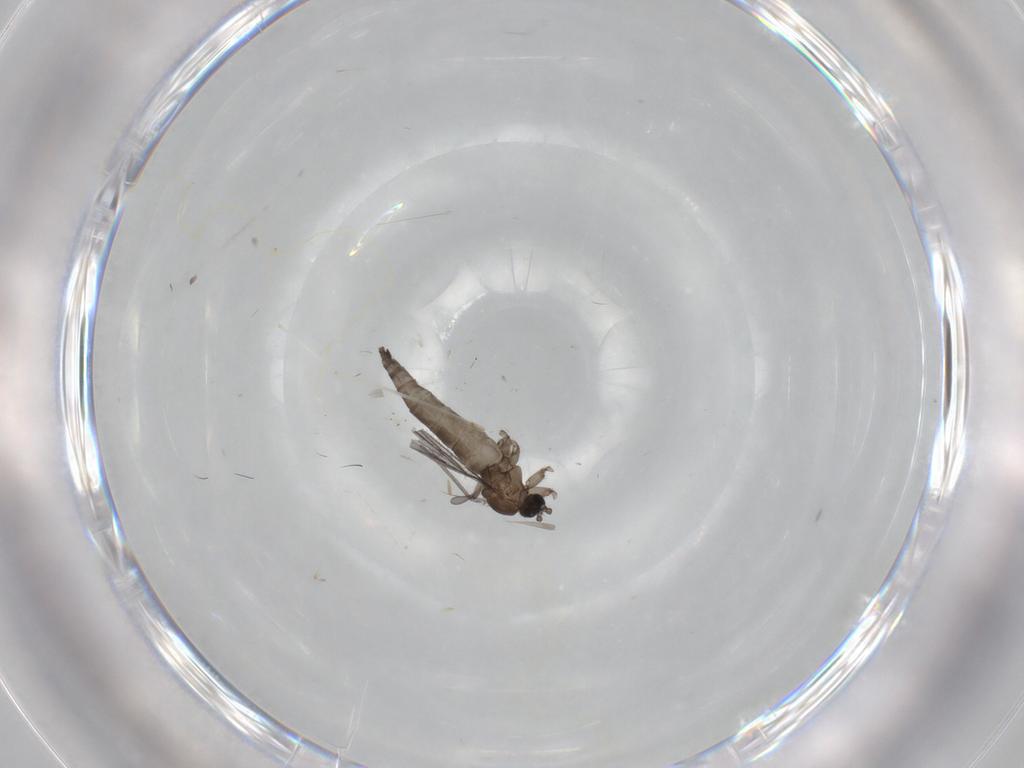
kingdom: Animalia
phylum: Arthropoda
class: Insecta
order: Diptera
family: Sciaridae
